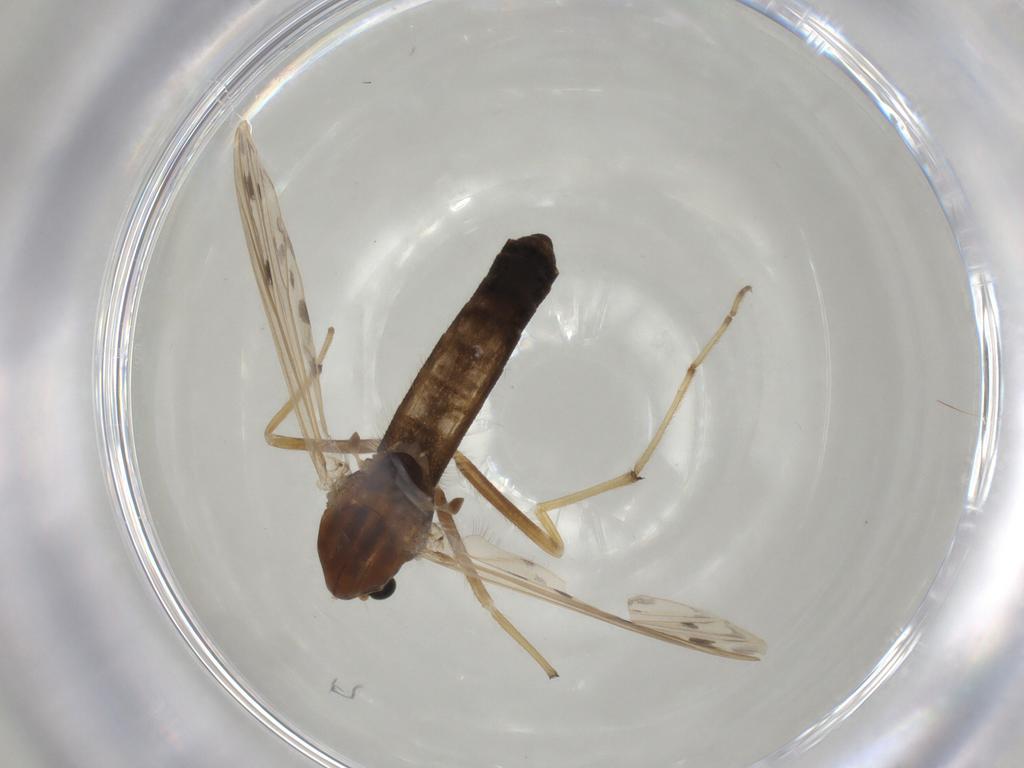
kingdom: Animalia
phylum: Arthropoda
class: Insecta
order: Diptera
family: Chironomidae
